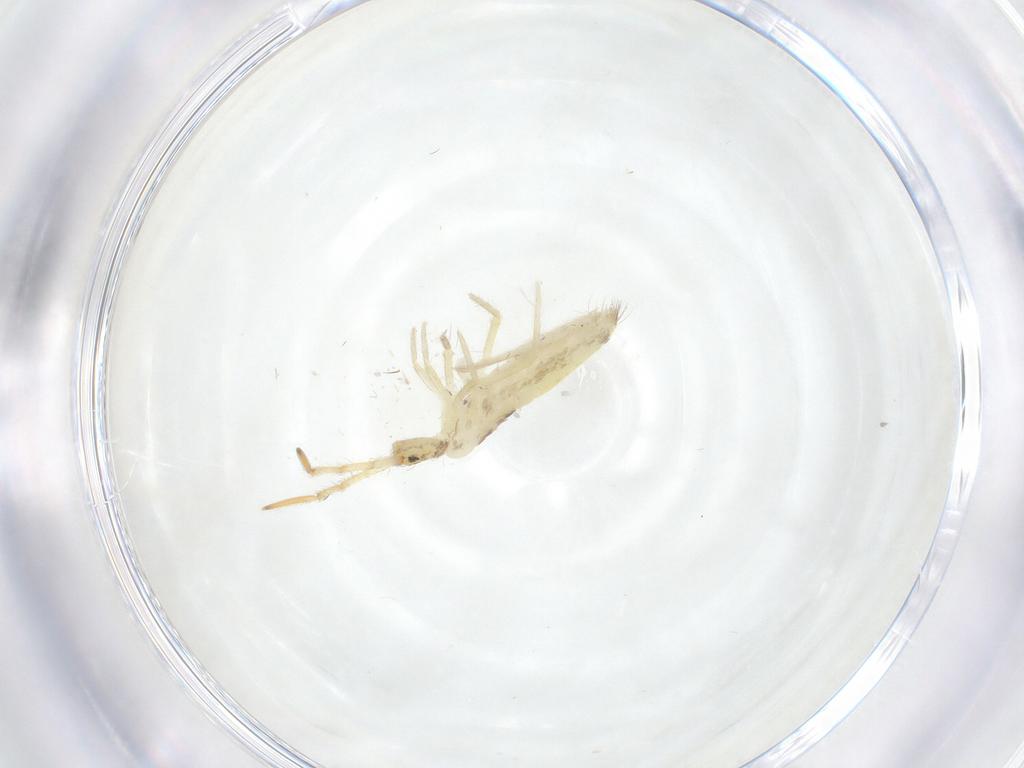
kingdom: Animalia
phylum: Arthropoda
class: Collembola
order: Entomobryomorpha
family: Entomobryidae
